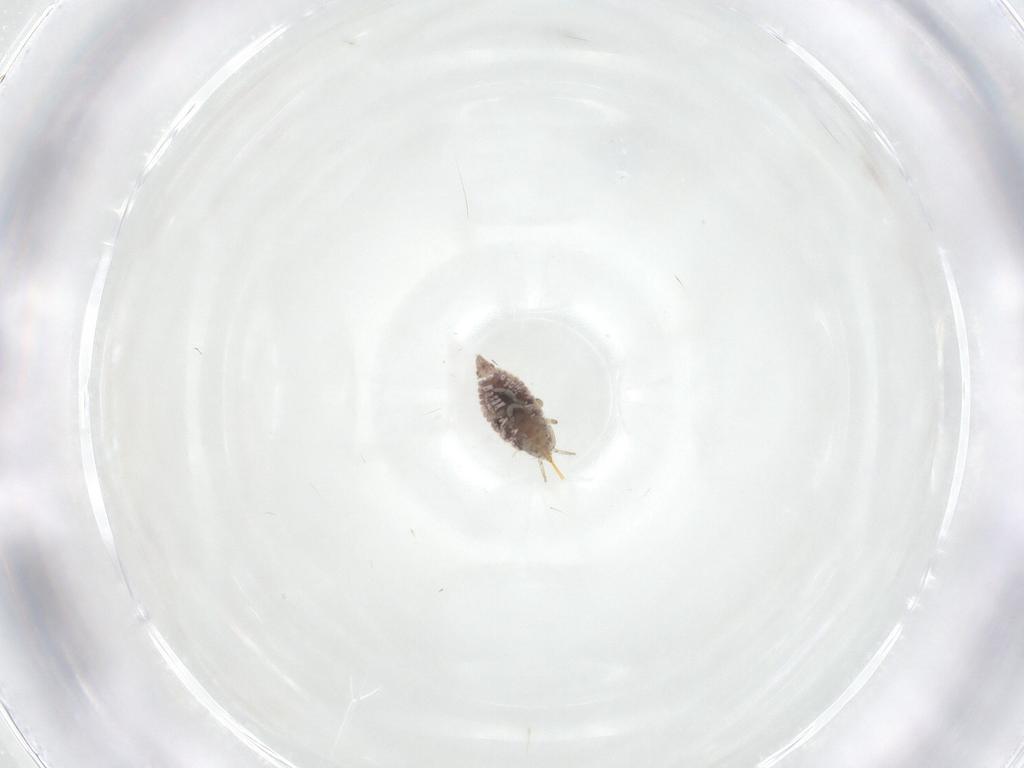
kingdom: Animalia
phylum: Arthropoda
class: Insecta
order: Neuroptera
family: Coniopterygidae
